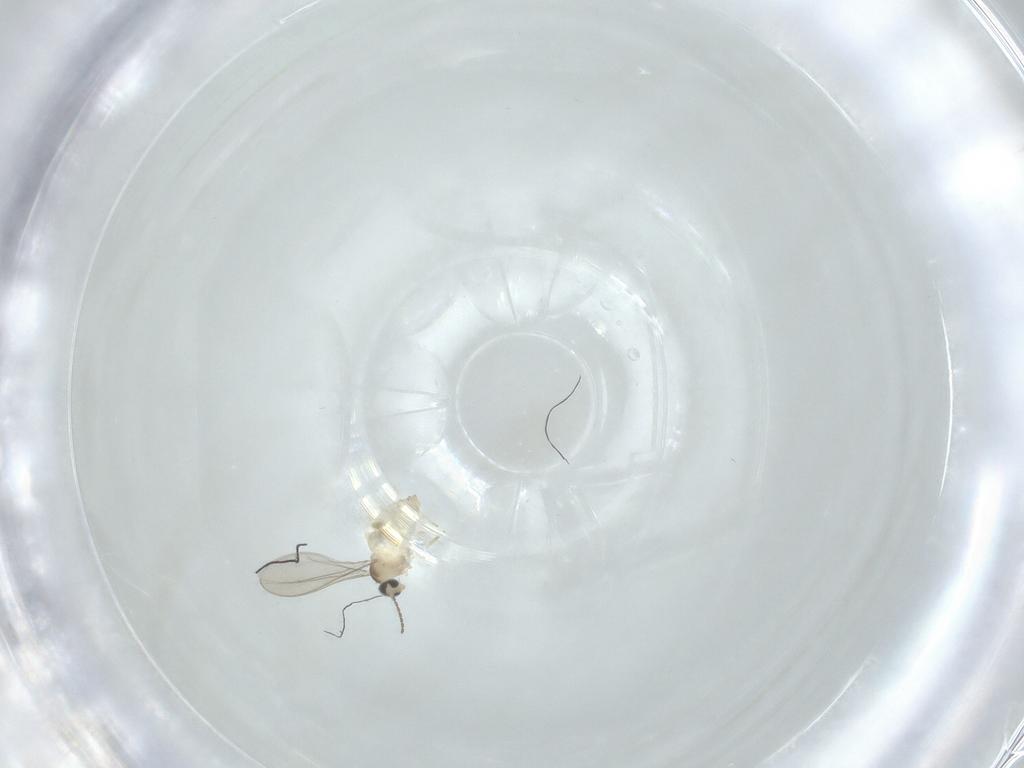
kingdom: Animalia
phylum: Arthropoda
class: Insecta
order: Diptera
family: Cecidomyiidae
